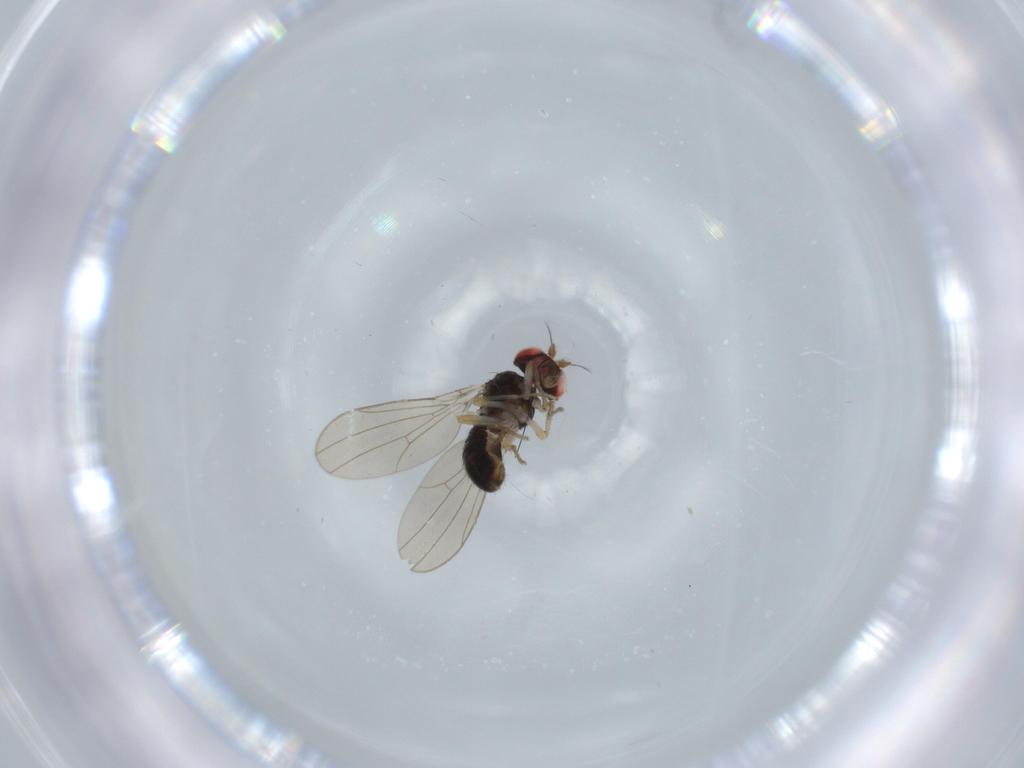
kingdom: Animalia
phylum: Arthropoda
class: Insecta
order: Diptera
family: Drosophilidae
